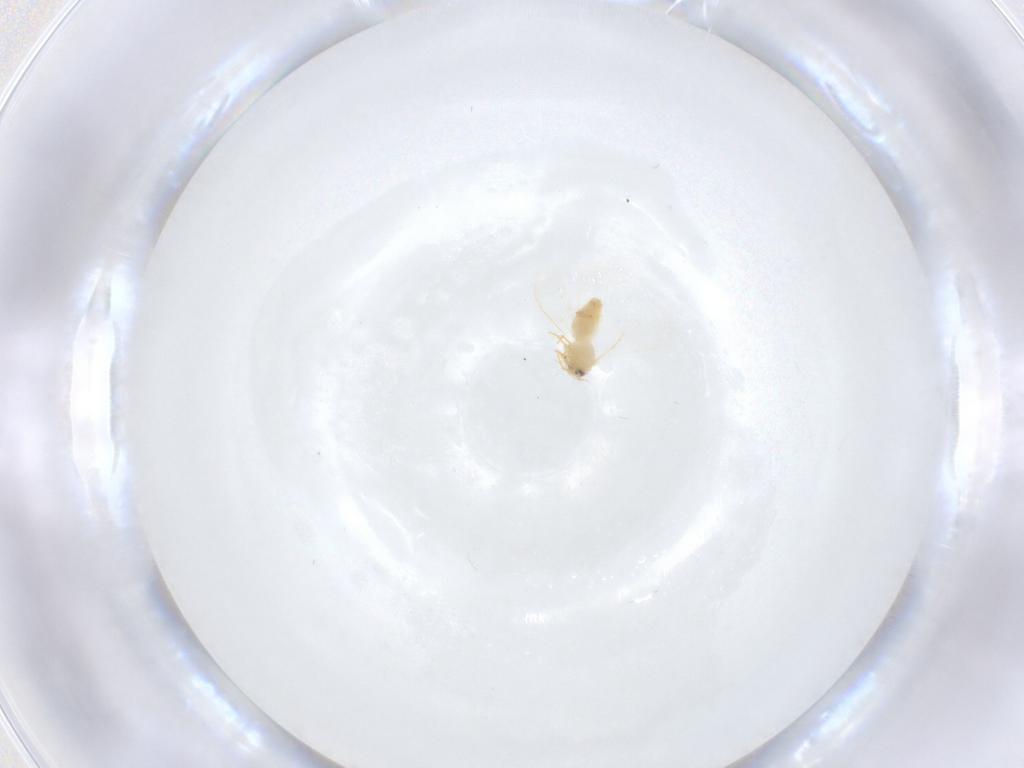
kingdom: Animalia
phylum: Arthropoda
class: Insecta
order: Hemiptera
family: Aleyrodidae
